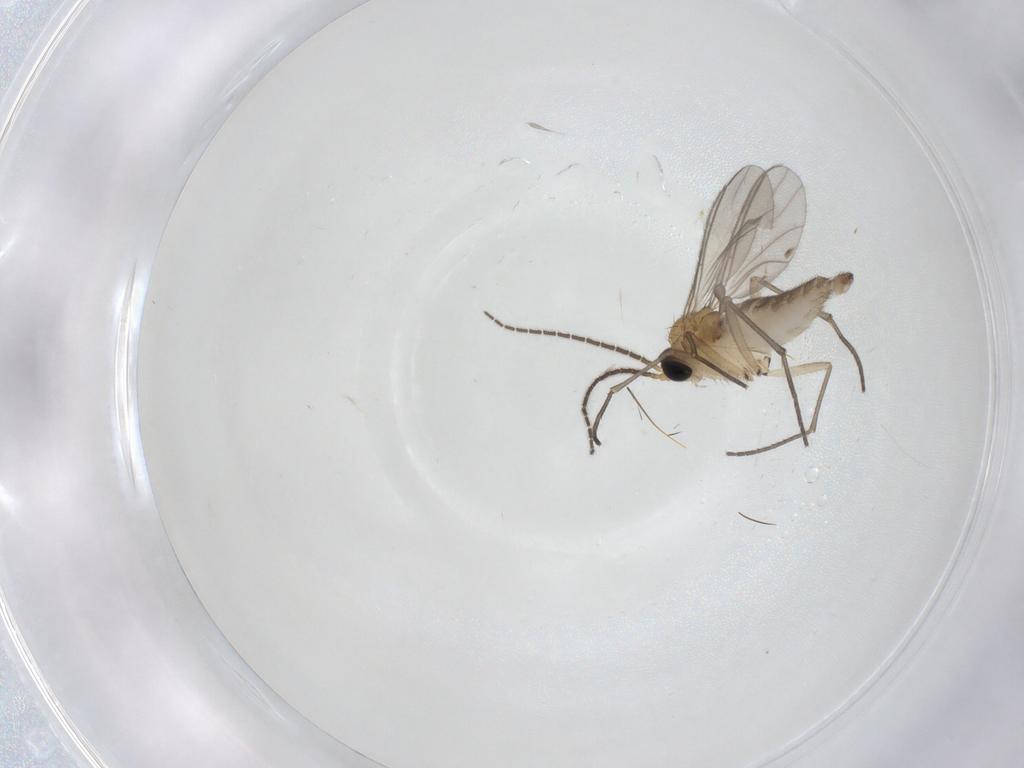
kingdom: Animalia
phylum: Arthropoda
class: Insecta
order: Diptera
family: Sciaridae
